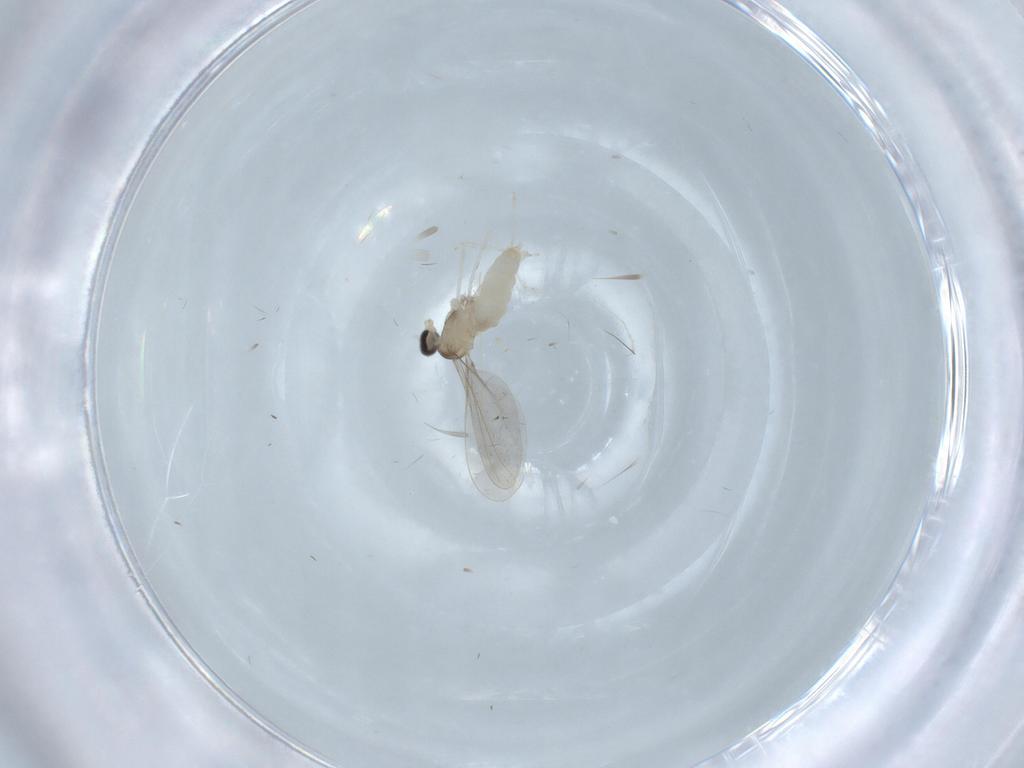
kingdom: Animalia
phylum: Arthropoda
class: Insecta
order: Diptera
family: Cecidomyiidae
